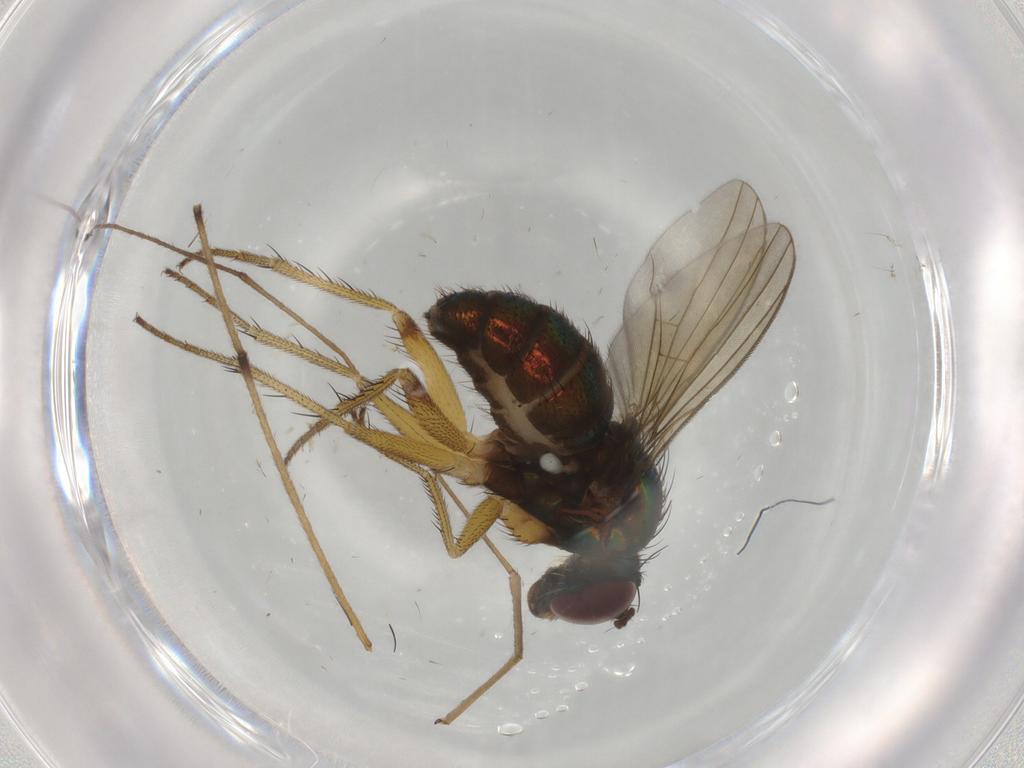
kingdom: Animalia
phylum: Arthropoda
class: Insecta
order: Diptera
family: Dolichopodidae
